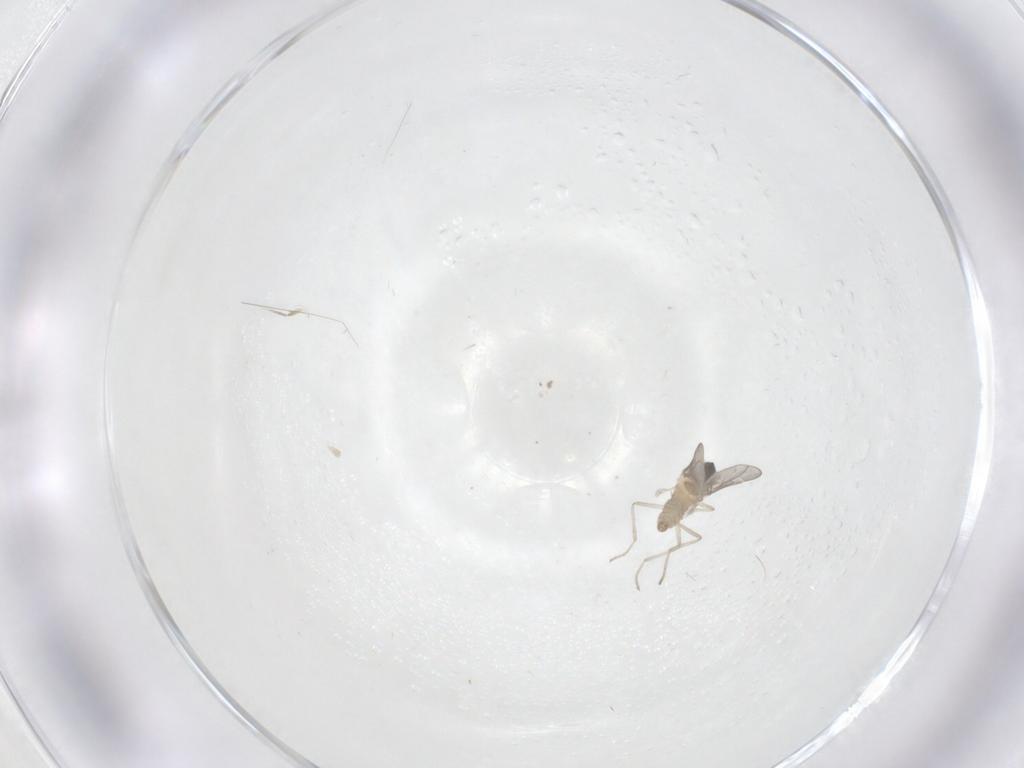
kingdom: Animalia
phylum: Arthropoda
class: Insecta
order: Diptera
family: Cecidomyiidae
